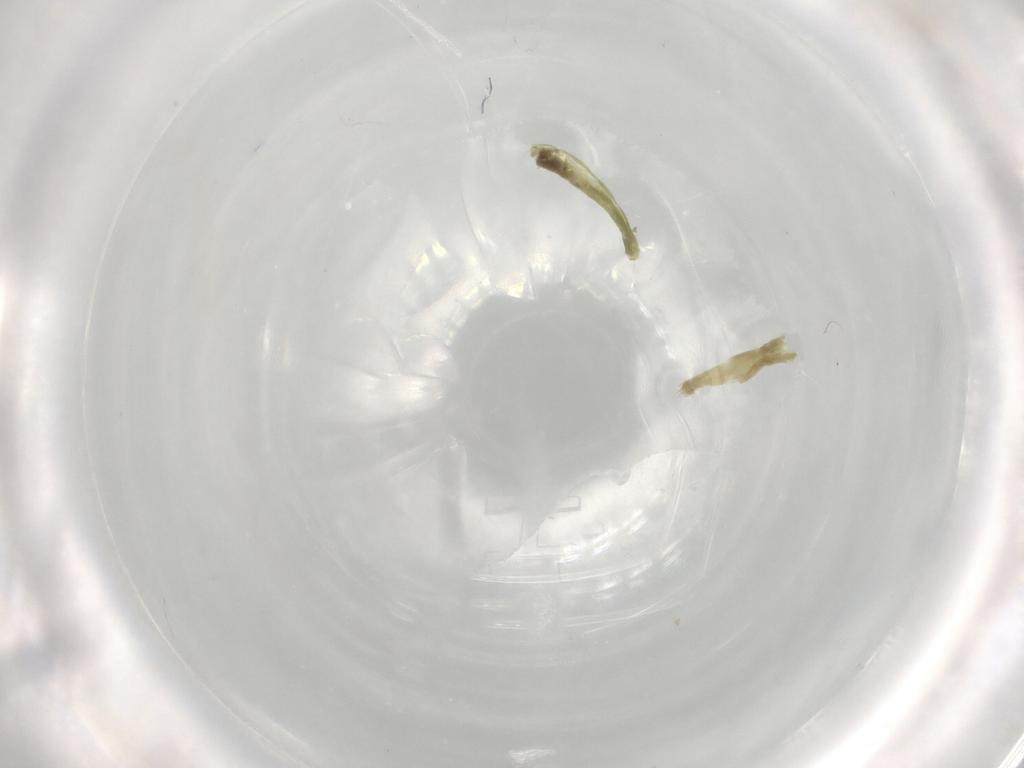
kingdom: Animalia
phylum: Arthropoda
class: Insecta
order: Diptera
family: Chironomidae
